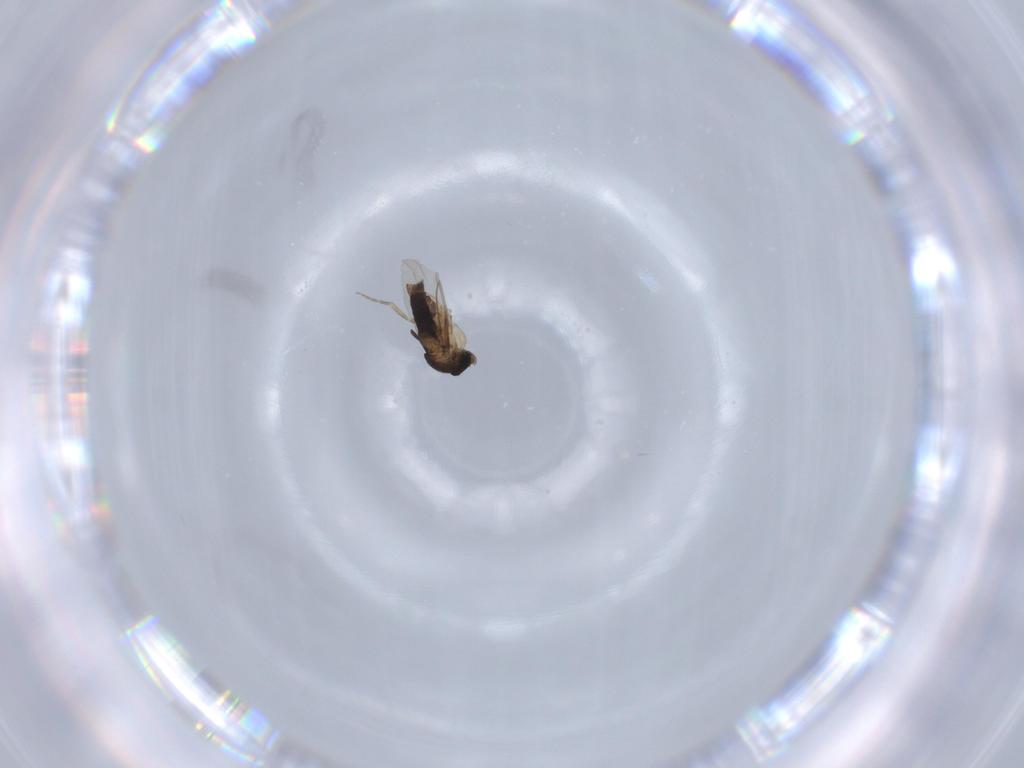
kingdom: Animalia
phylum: Arthropoda
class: Insecta
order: Diptera
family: Phoridae
